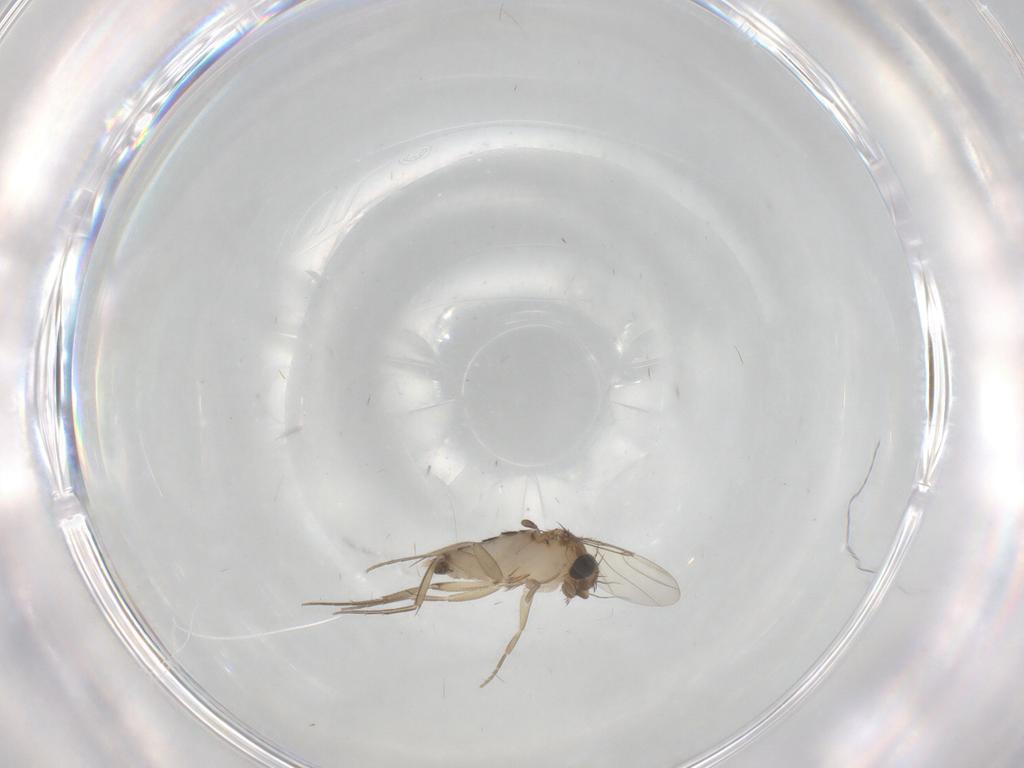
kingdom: Animalia
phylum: Arthropoda
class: Insecta
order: Diptera
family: Phoridae
